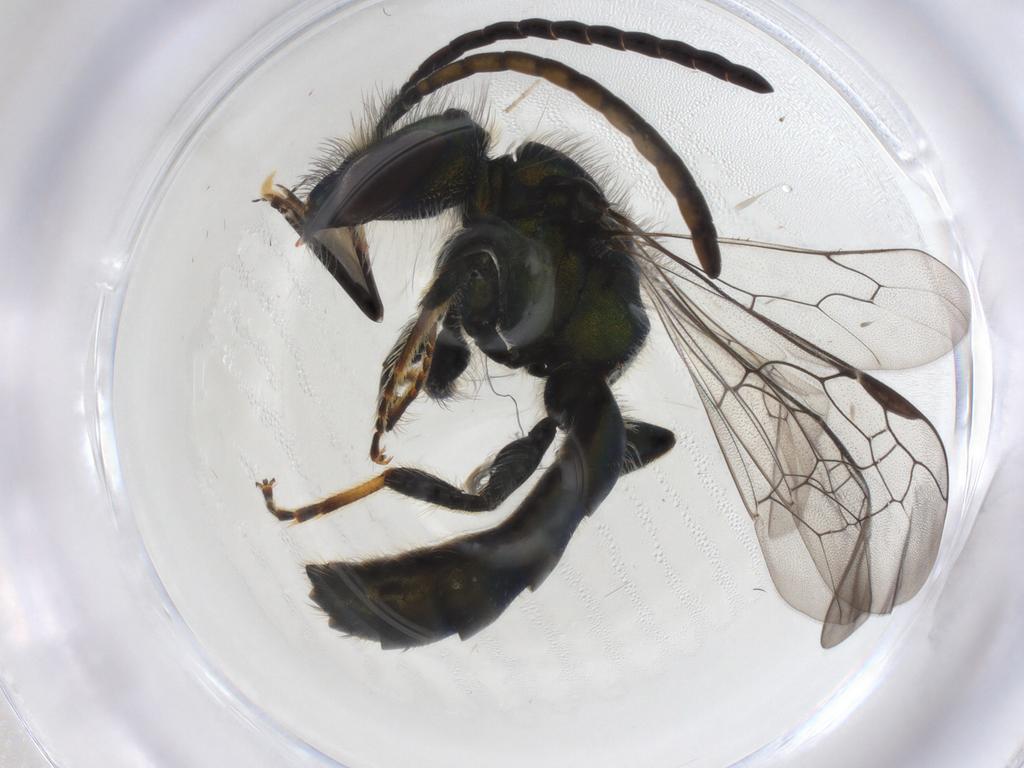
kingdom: Animalia
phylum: Arthropoda
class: Insecta
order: Hymenoptera
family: Halictidae
